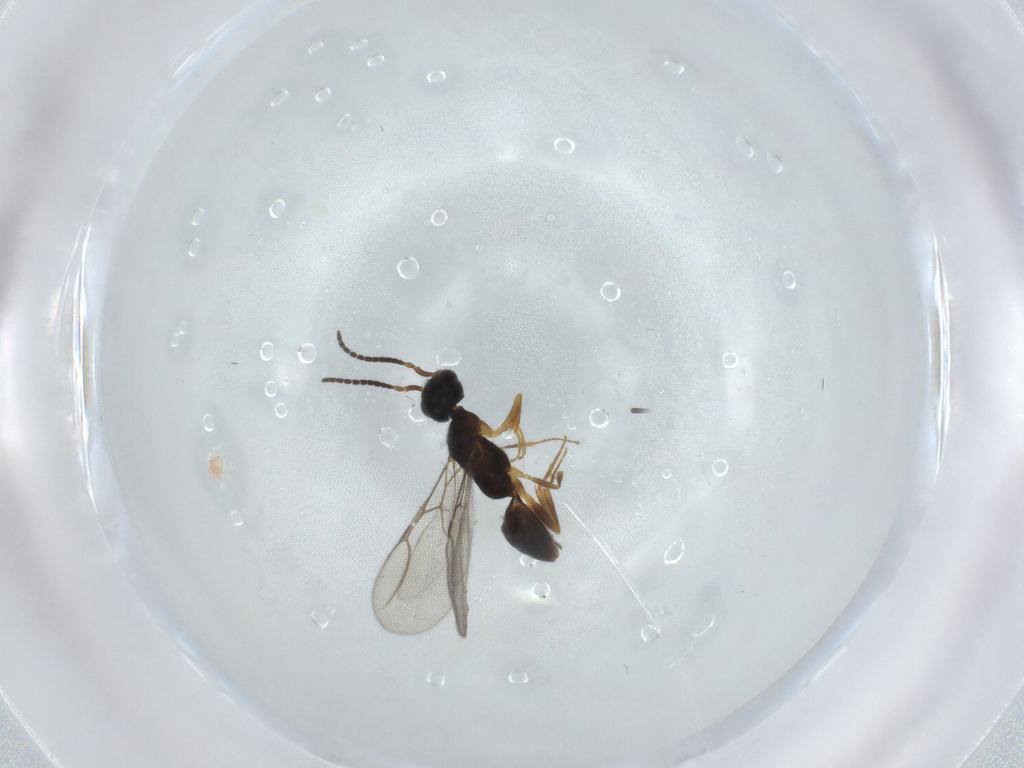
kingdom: Animalia
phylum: Arthropoda
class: Insecta
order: Hymenoptera
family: Bethylidae
